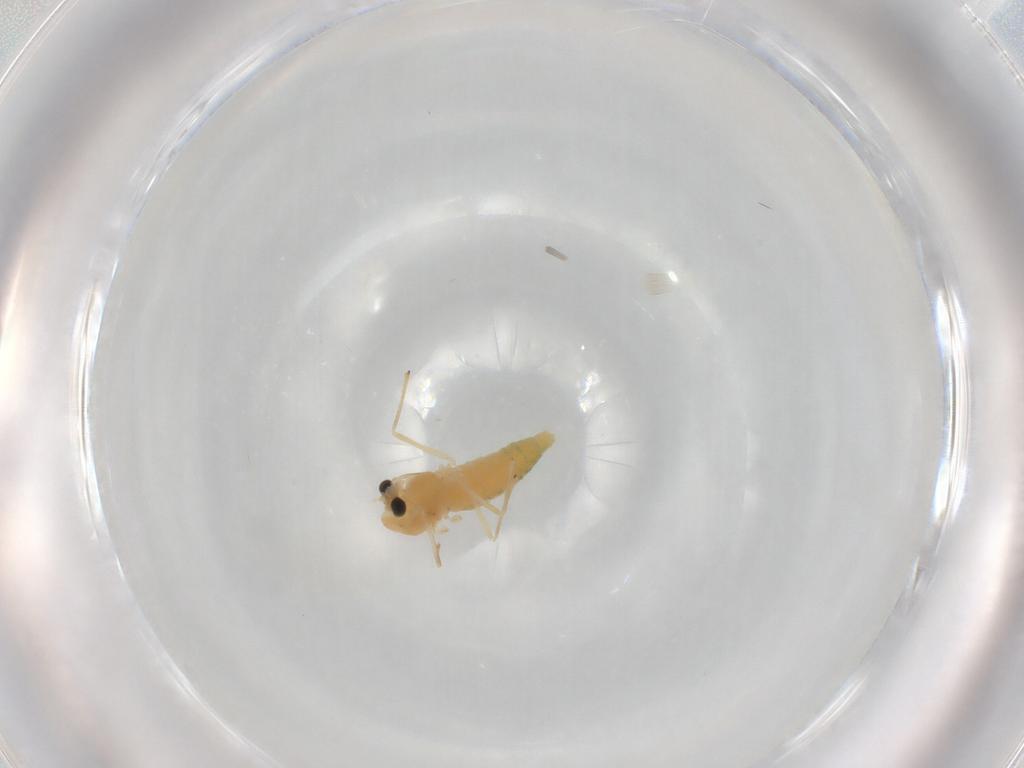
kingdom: Animalia
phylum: Arthropoda
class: Insecta
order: Diptera
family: Chironomidae
